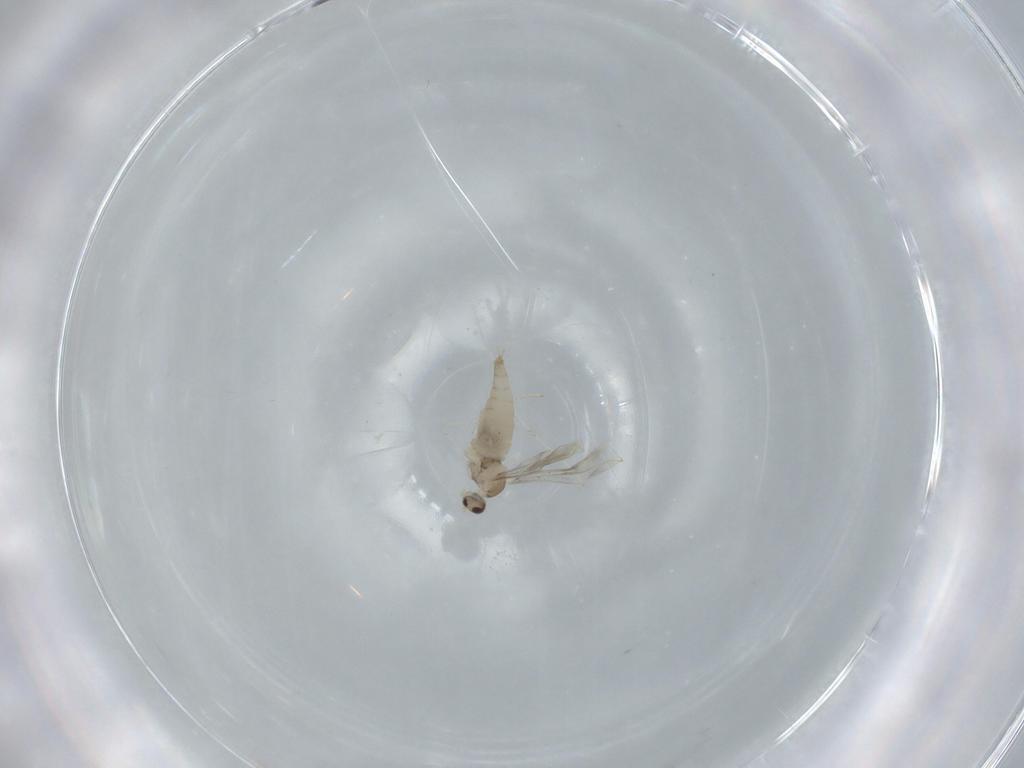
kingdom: Animalia
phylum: Arthropoda
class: Insecta
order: Diptera
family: Cecidomyiidae
